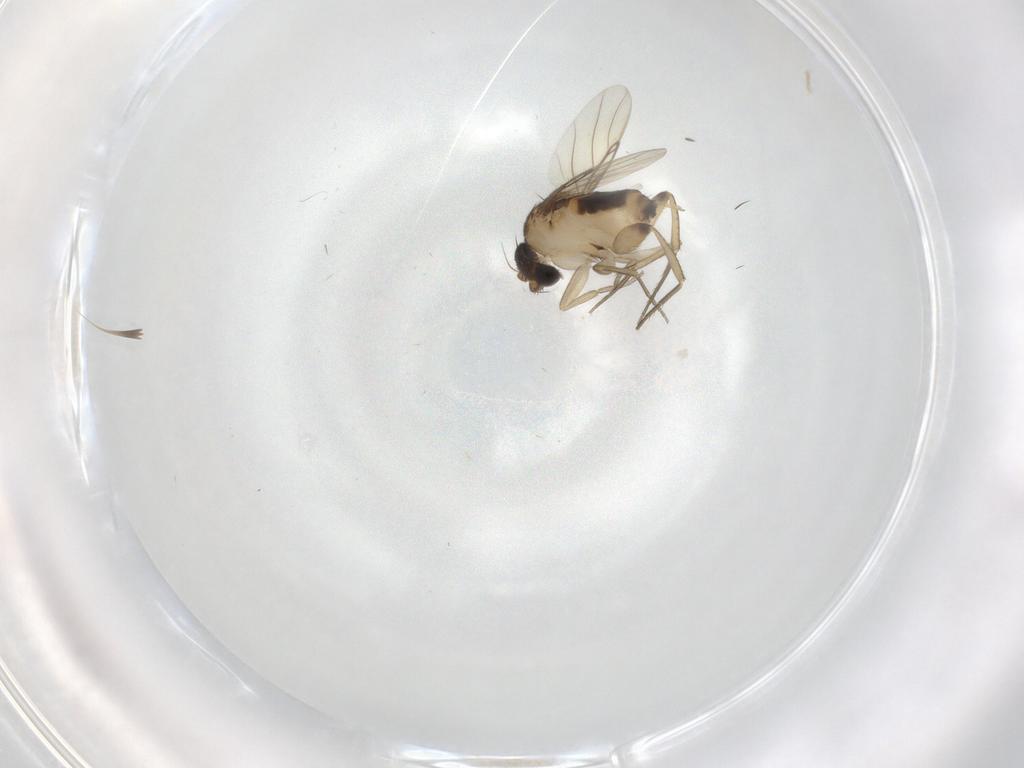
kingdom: Animalia
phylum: Arthropoda
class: Insecta
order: Diptera
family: Phoridae
